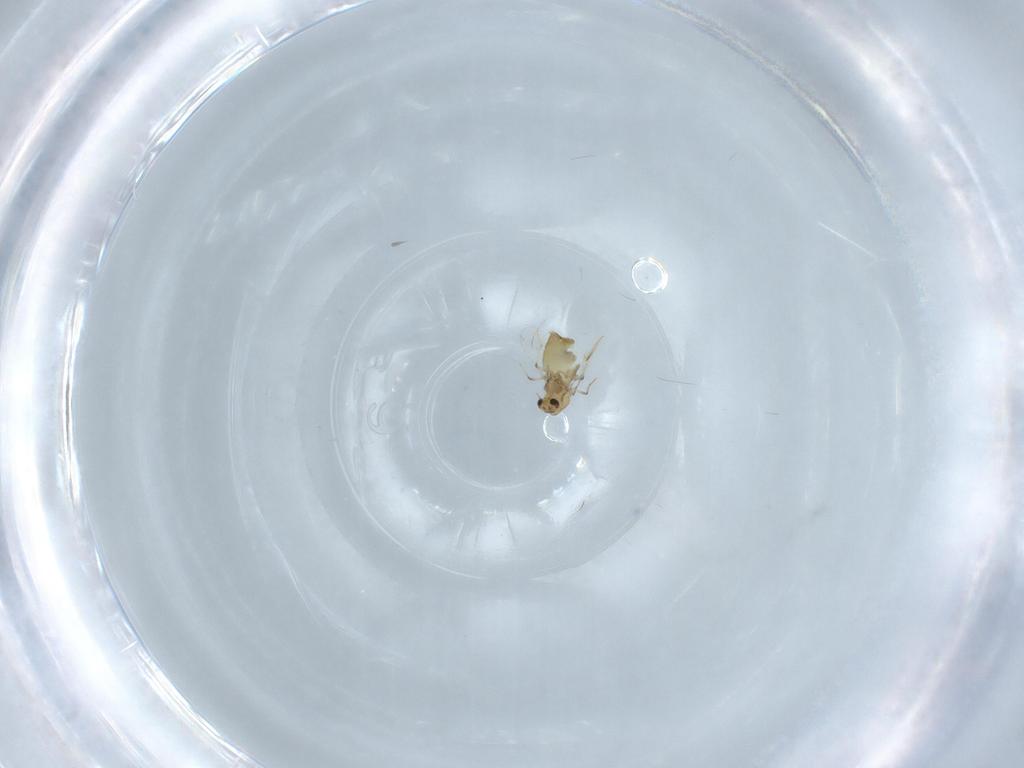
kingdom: Animalia
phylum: Arthropoda
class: Insecta
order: Diptera
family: Chironomidae
